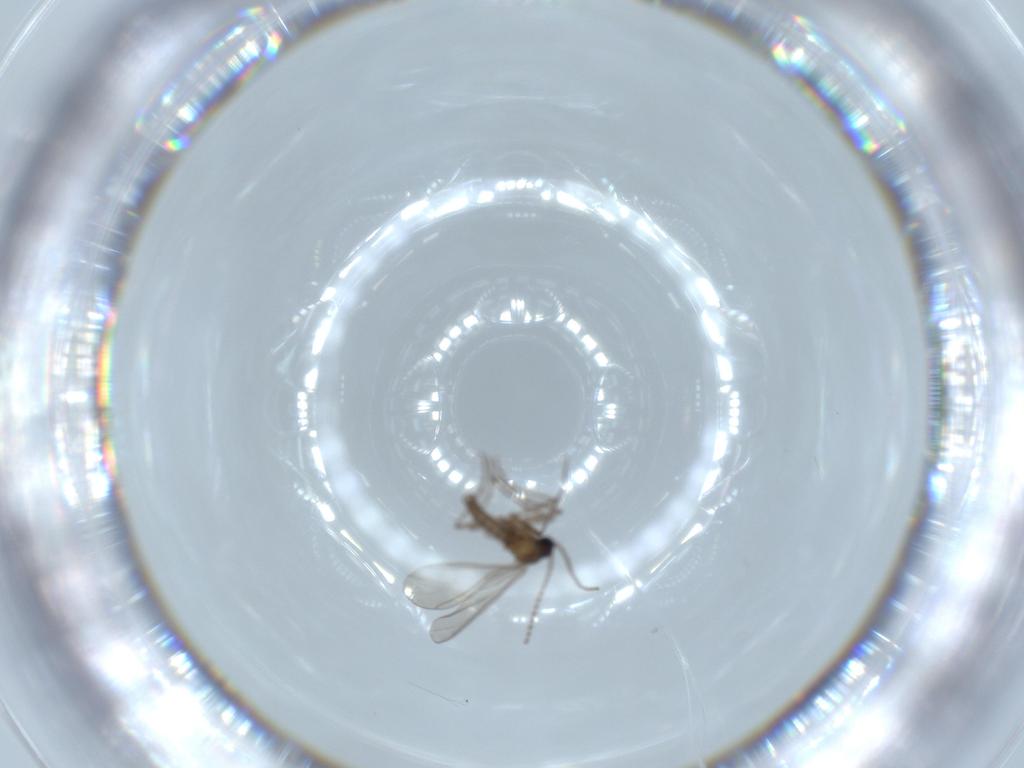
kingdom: Animalia
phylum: Arthropoda
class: Insecta
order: Diptera
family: Sciaridae
